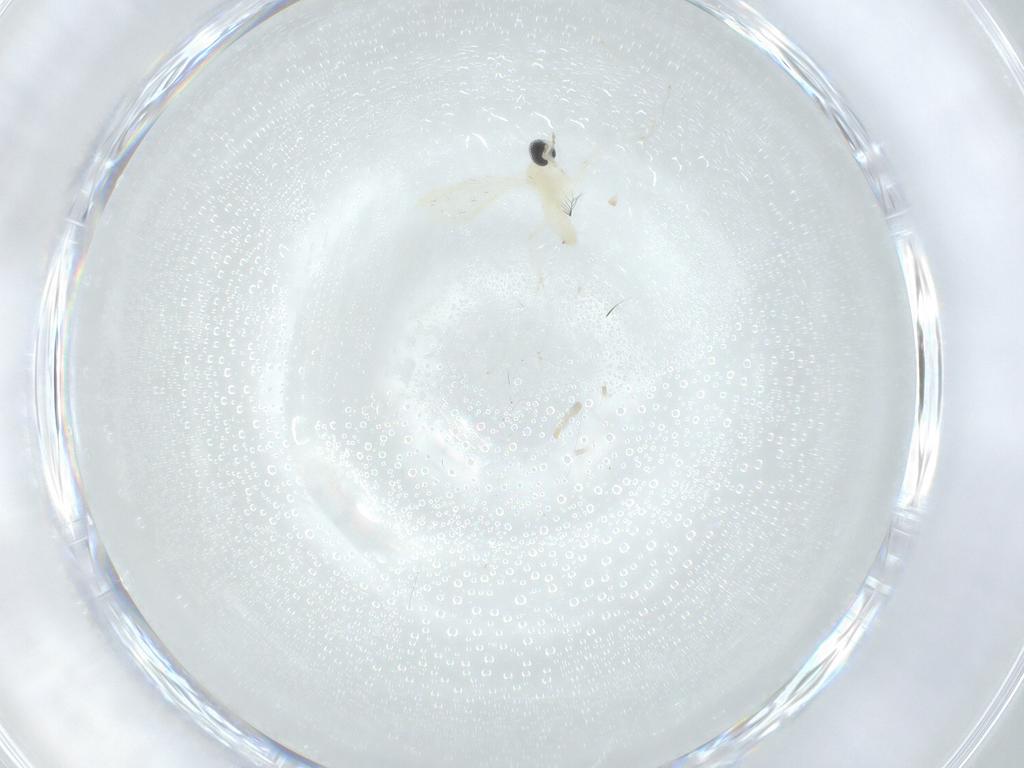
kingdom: Animalia
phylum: Arthropoda
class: Insecta
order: Diptera
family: Cecidomyiidae
